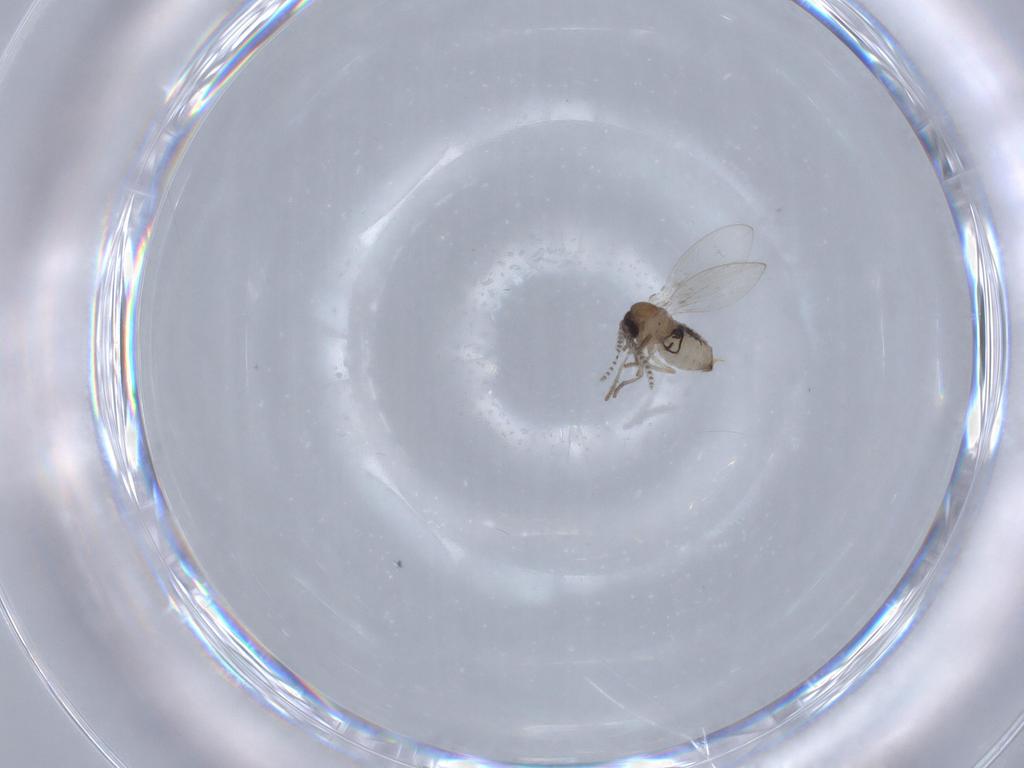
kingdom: Animalia
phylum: Arthropoda
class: Insecta
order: Diptera
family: Psychodidae
